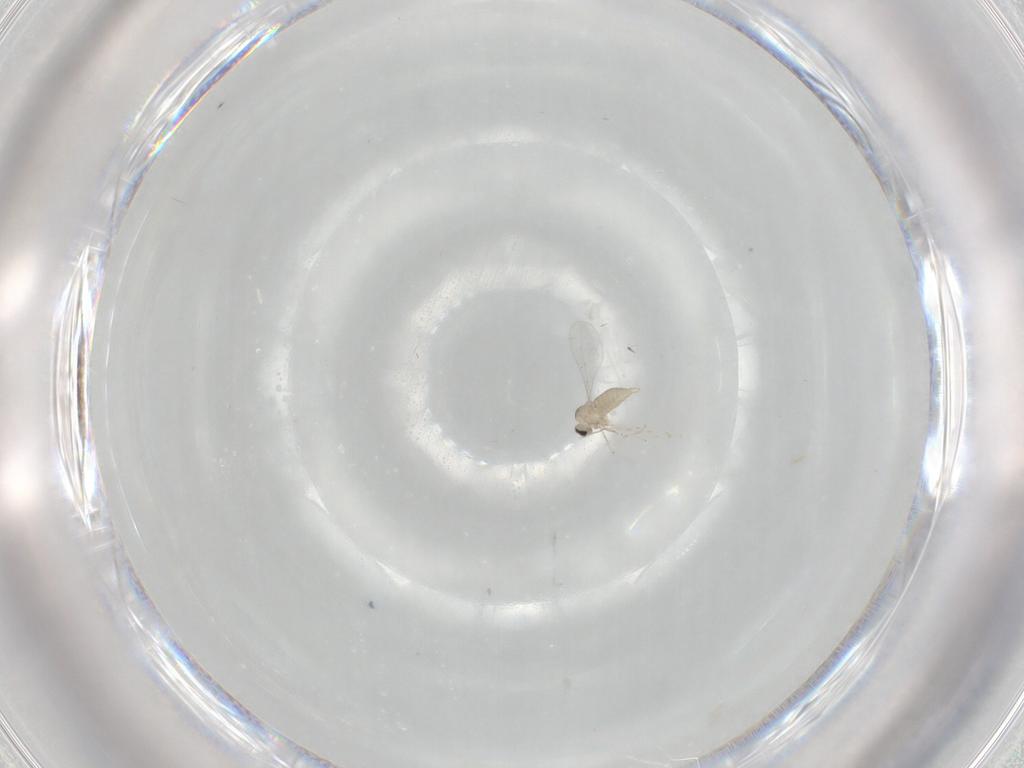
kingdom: Animalia
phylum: Arthropoda
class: Insecta
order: Diptera
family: Cecidomyiidae
